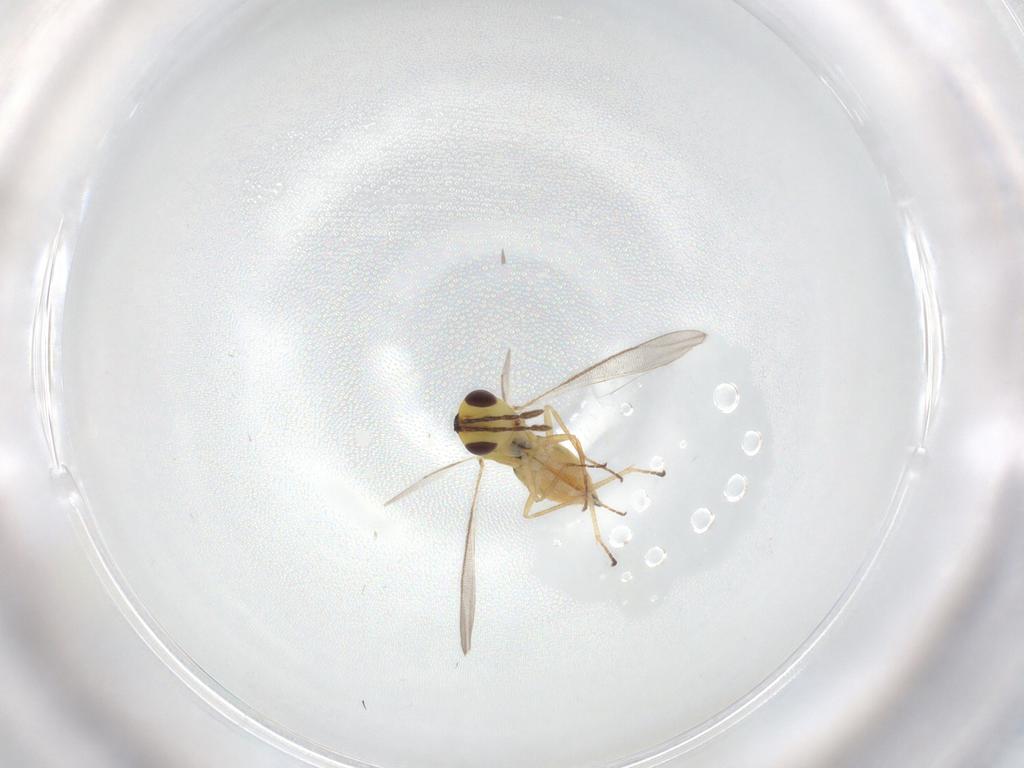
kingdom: Animalia
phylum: Arthropoda
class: Insecta
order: Hymenoptera
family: Eulophidae
